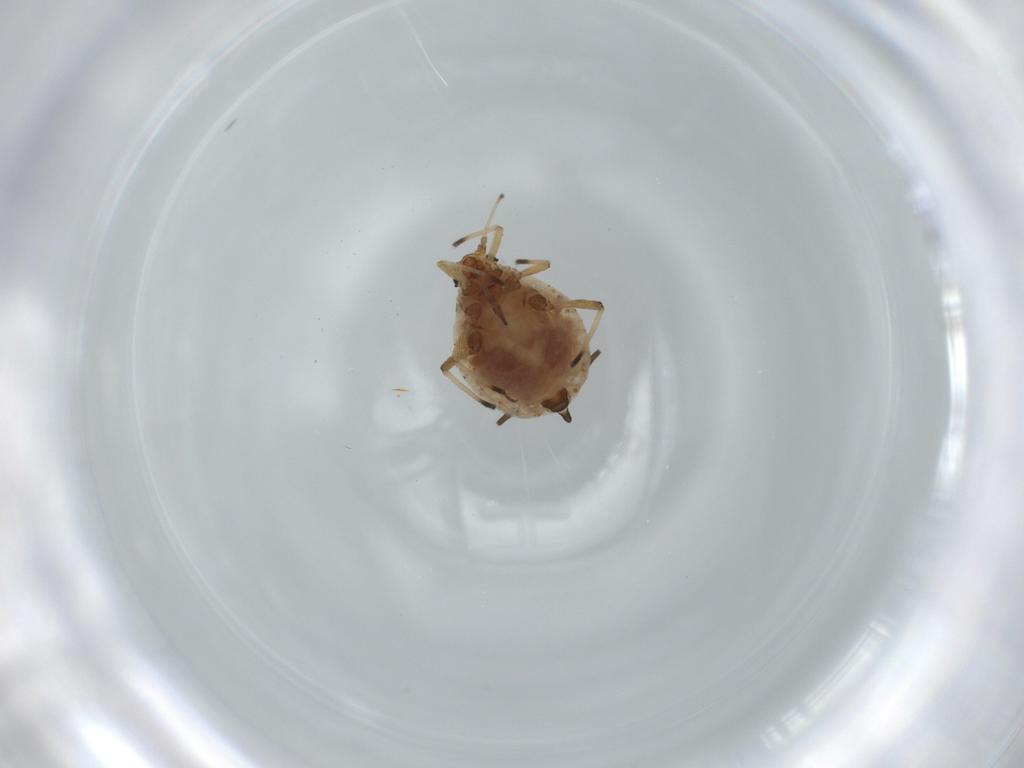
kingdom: Animalia
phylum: Arthropoda
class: Insecta
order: Hemiptera
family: Aphididae
